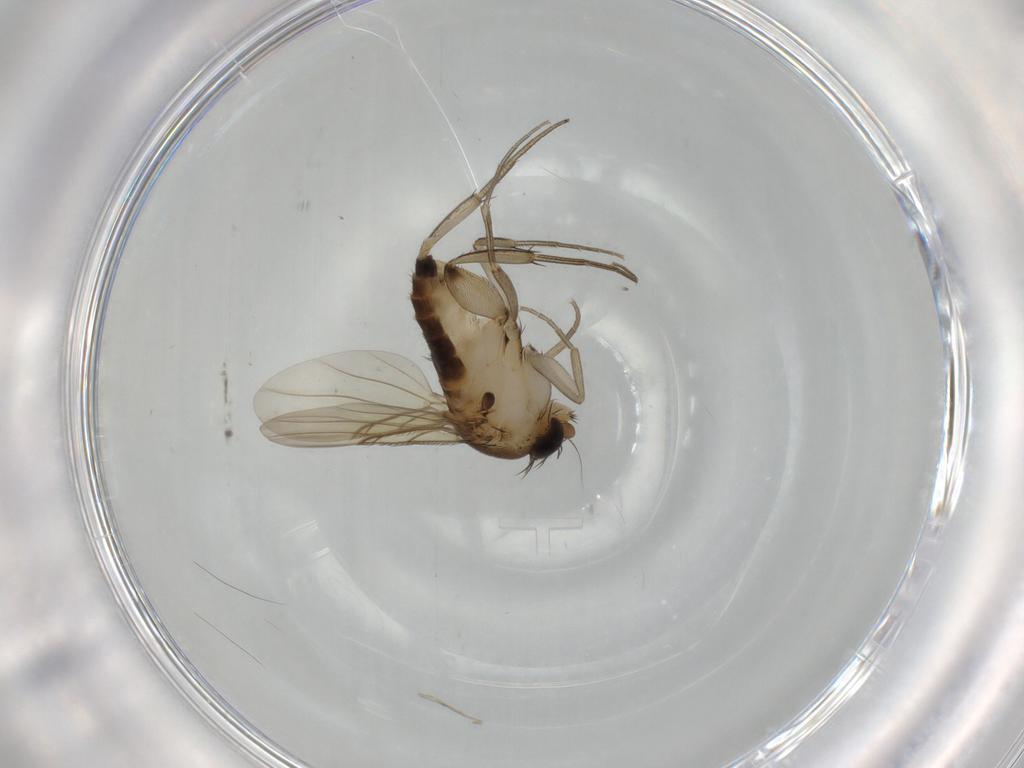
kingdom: Animalia
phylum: Arthropoda
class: Insecta
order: Diptera
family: Phoridae
